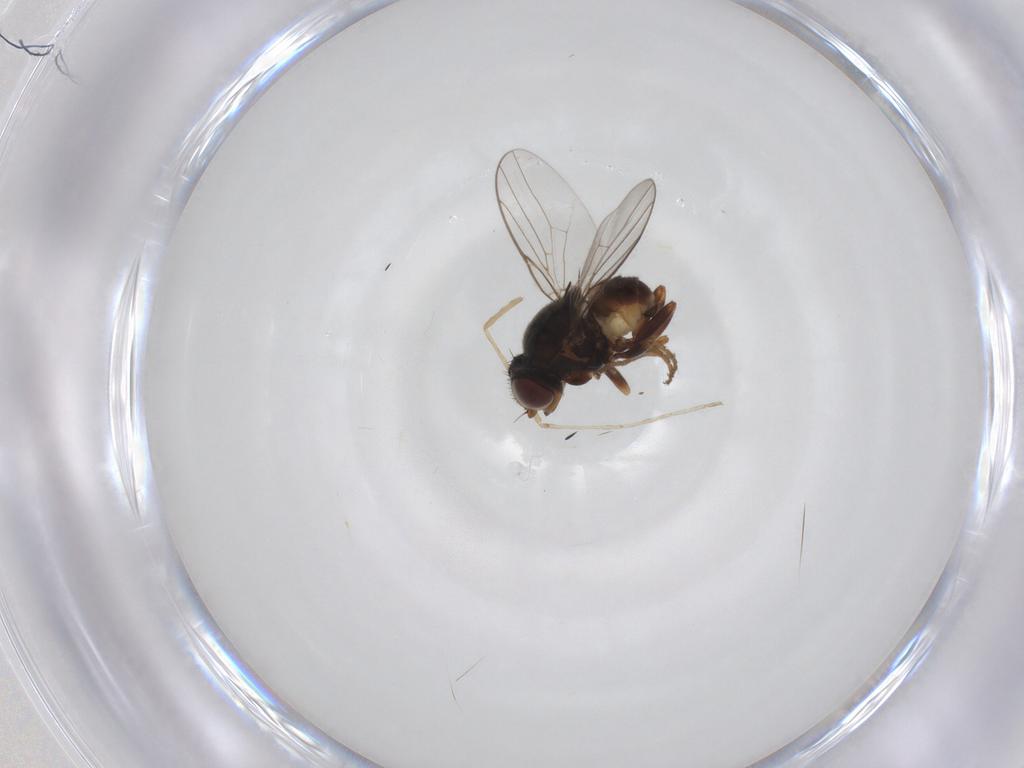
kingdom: Animalia
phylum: Arthropoda
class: Insecta
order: Diptera
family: Chloropidae
